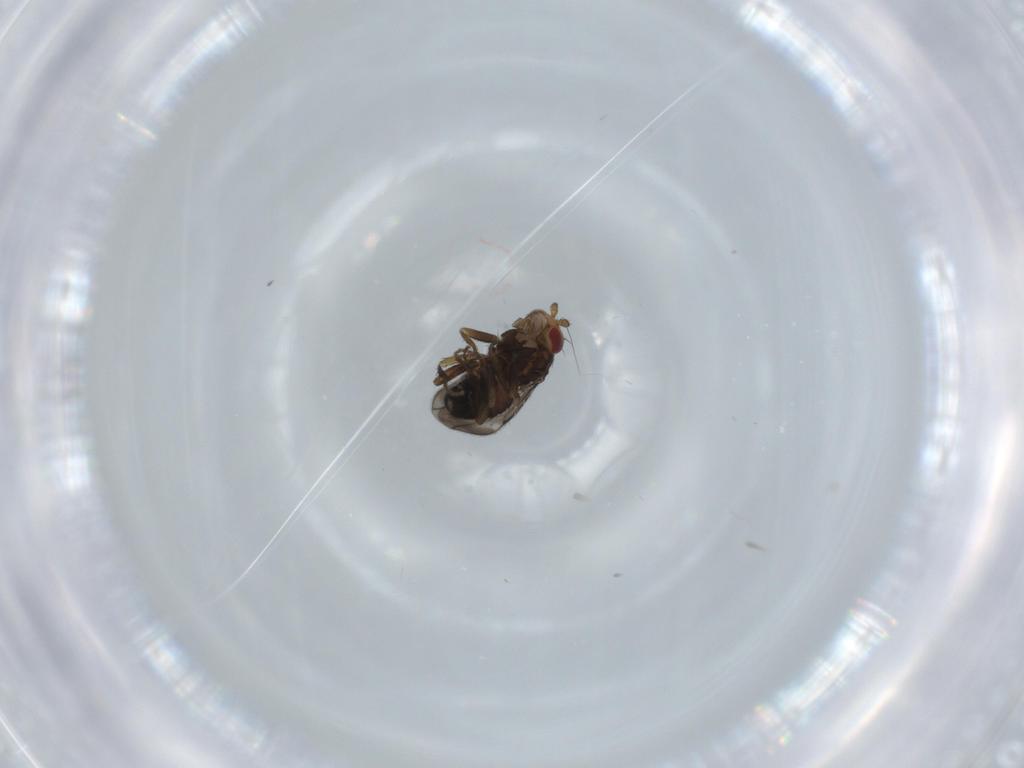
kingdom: Animalia
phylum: Arthropoda
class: Insecta
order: Diptera
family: Sphaeroceridae
